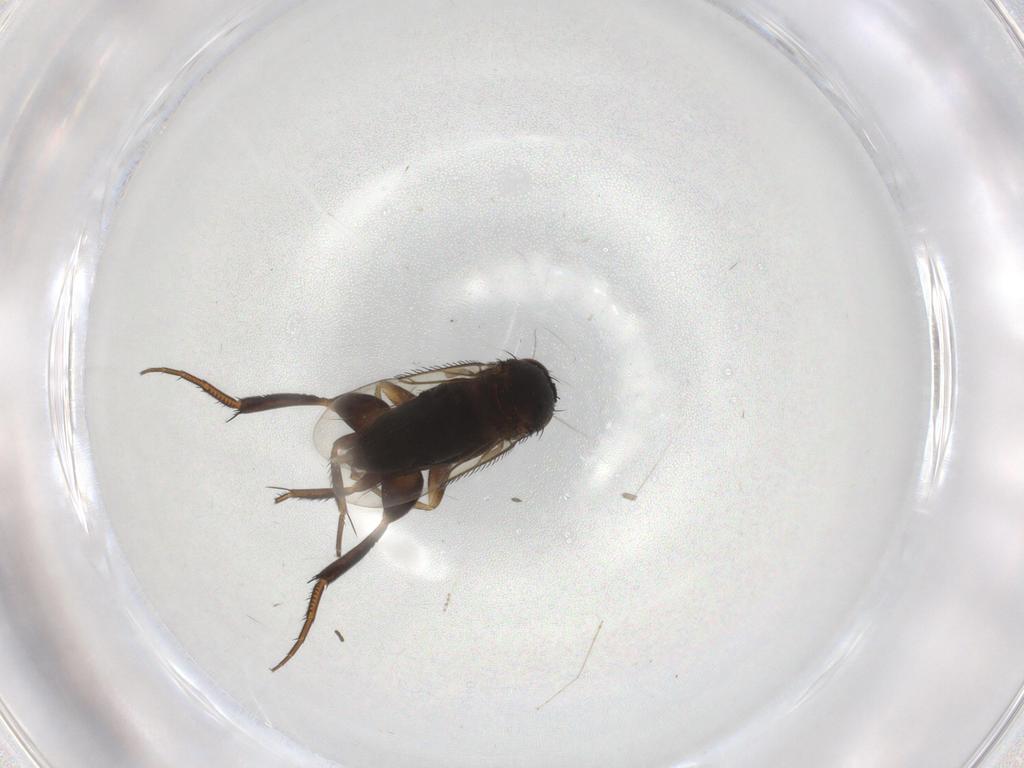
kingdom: Animalia
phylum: Arthropoda
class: Insecta
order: Diptera
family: Phoridae
